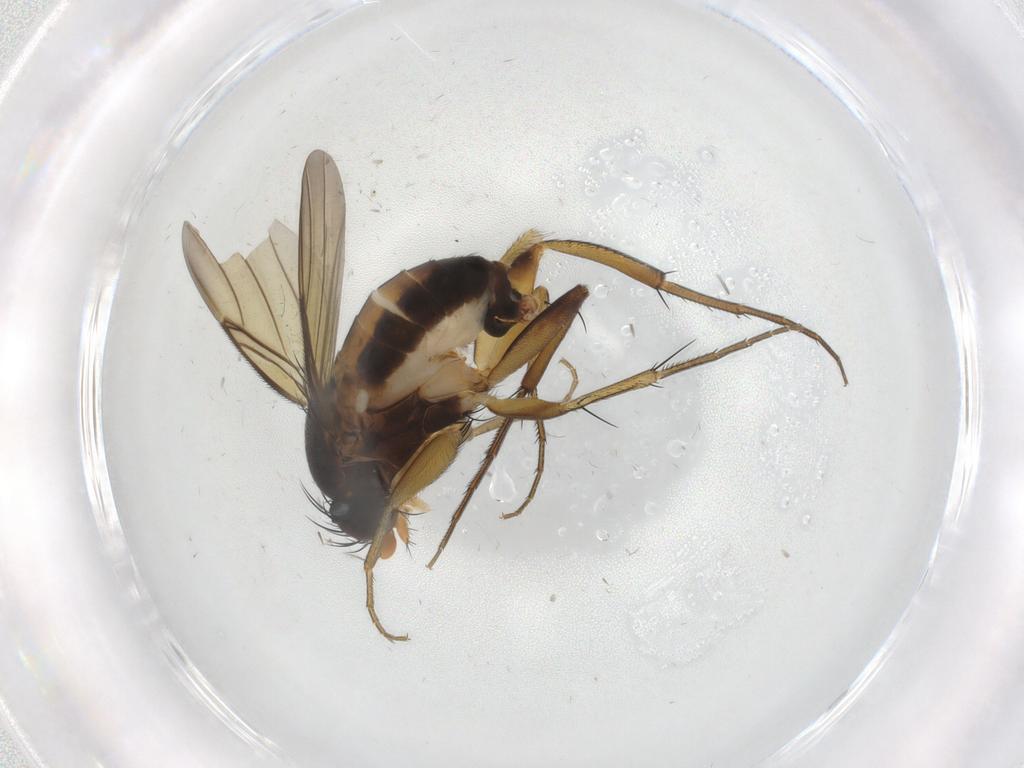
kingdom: Animalia
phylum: Arthropoda
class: Insecta
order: Diptera
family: Phoridae
